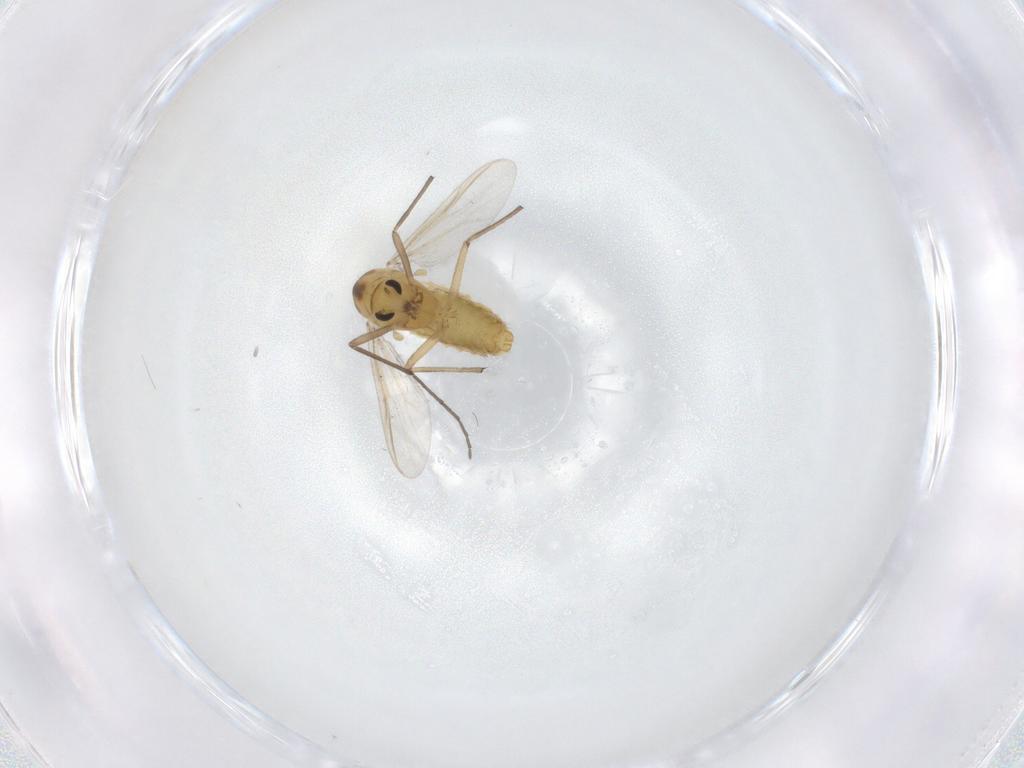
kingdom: Animalia
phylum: Arthropoda
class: Insecta
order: Diptera
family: Chironomidae
